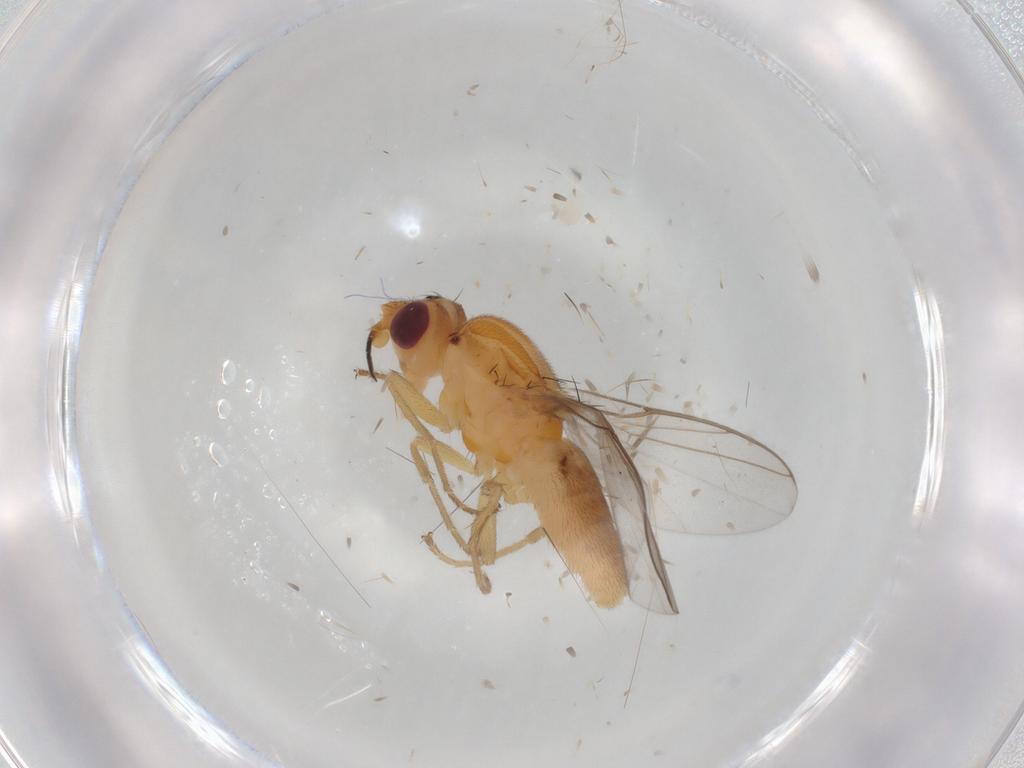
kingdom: Animalia
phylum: Arthropoda
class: Insecta
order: Diptera
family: Chloropidae
